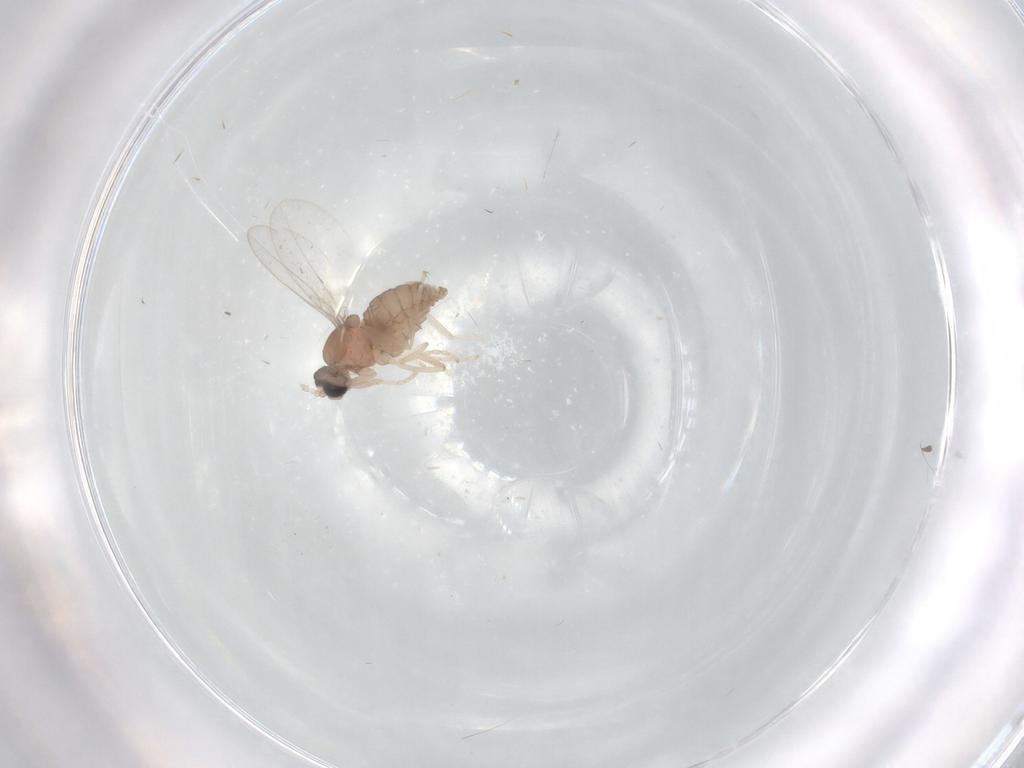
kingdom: Animalia
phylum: Arthropoda
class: Insecta
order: Diptera
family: Cecidomyiidae
